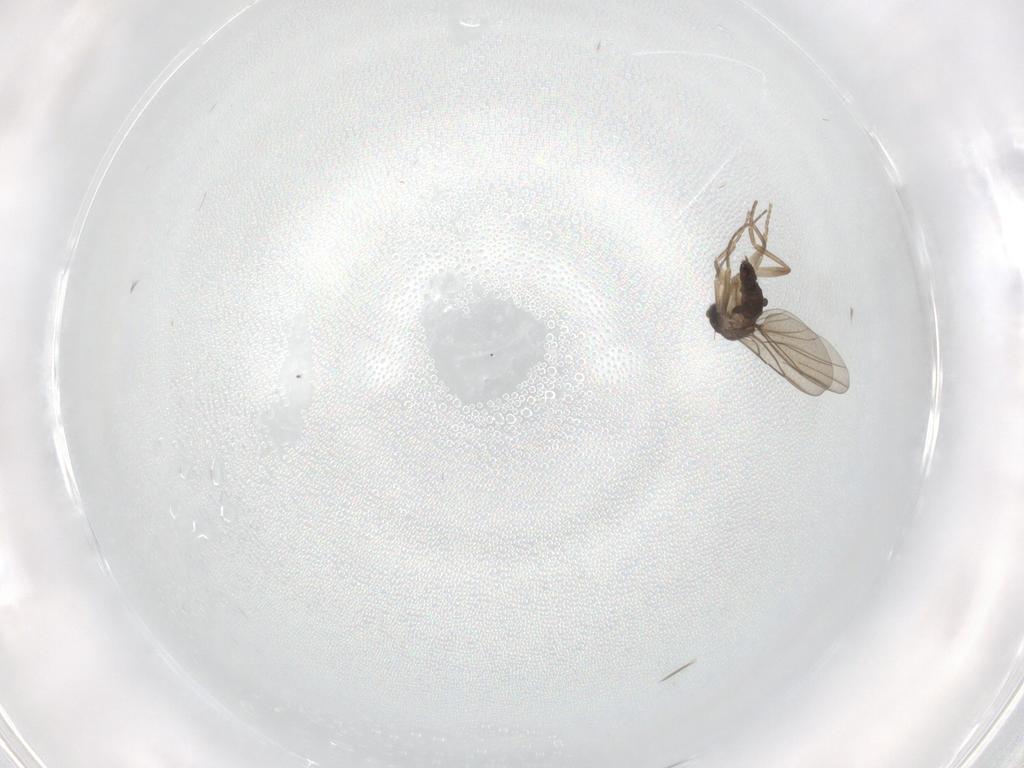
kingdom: Animalia
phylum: Arthropoda
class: Insecta
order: Diptera
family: Phoridae
